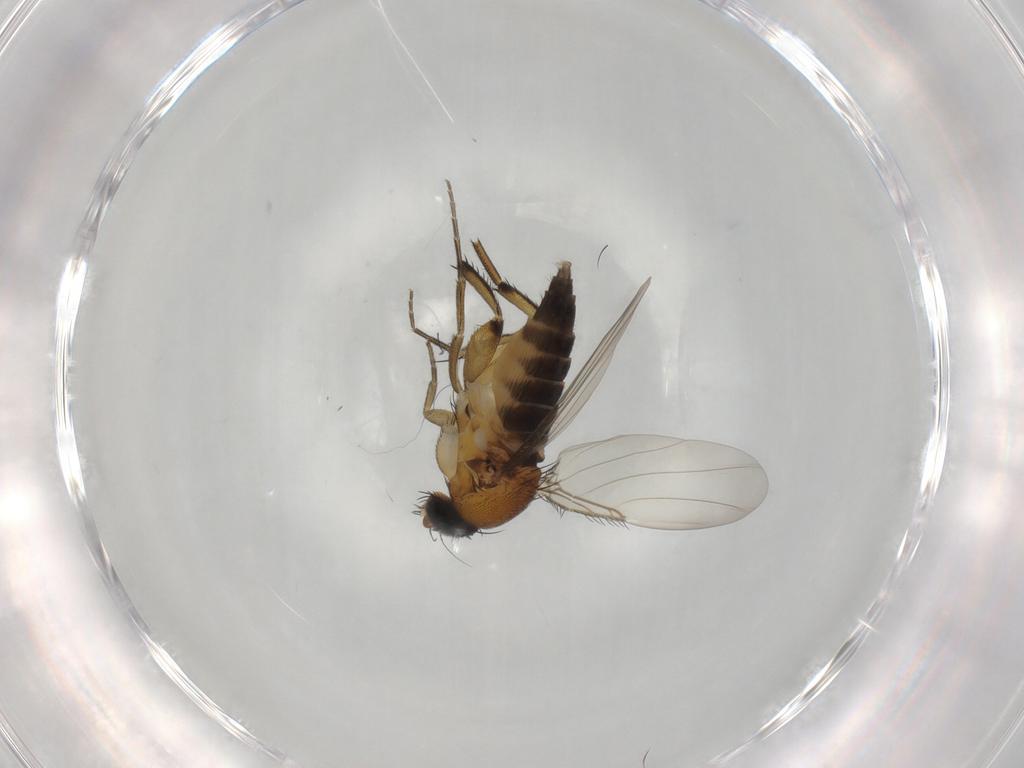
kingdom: Animalia
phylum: Arthropoda
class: Insecta
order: Diptera
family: Phoridae
